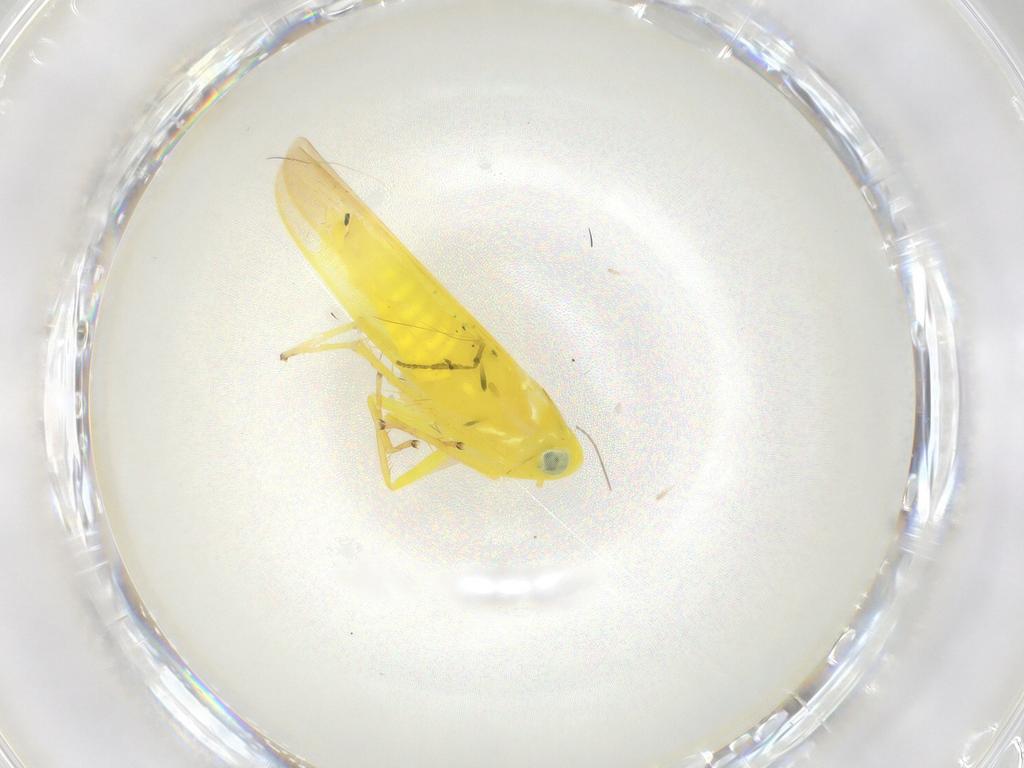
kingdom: Animalia
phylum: Arthropoda
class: Insecta
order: Hemiptera
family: Cicadellidae
